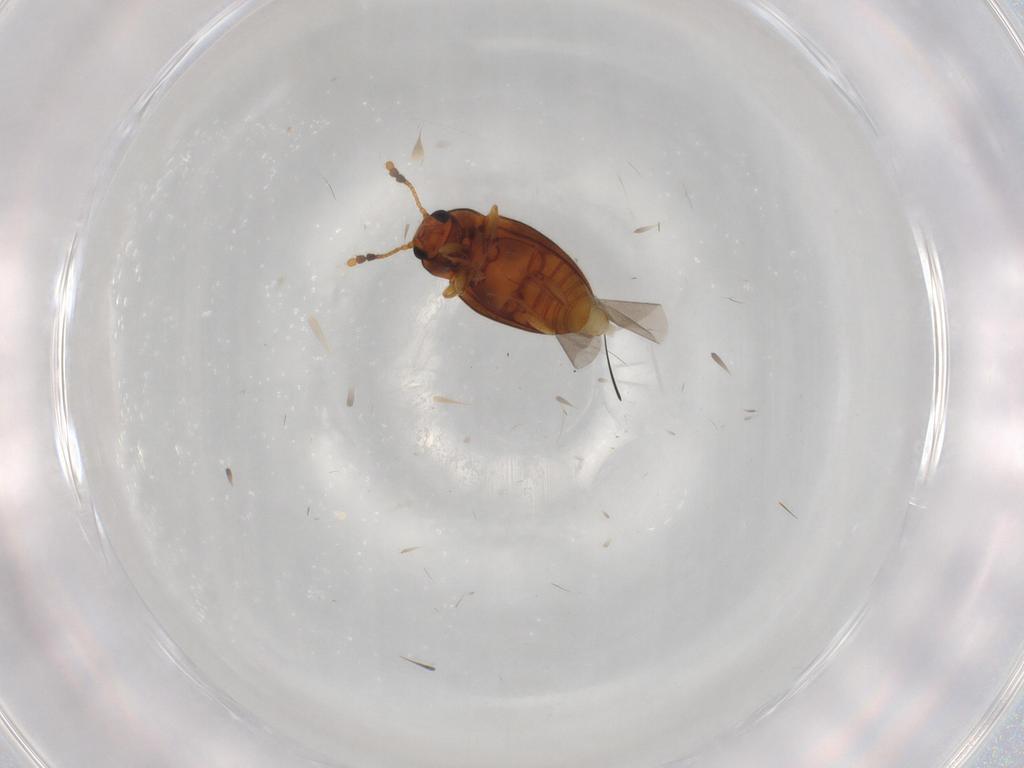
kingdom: Animalia
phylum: Arthropoda
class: Insecta
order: Coleoptera
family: Erotylidae
